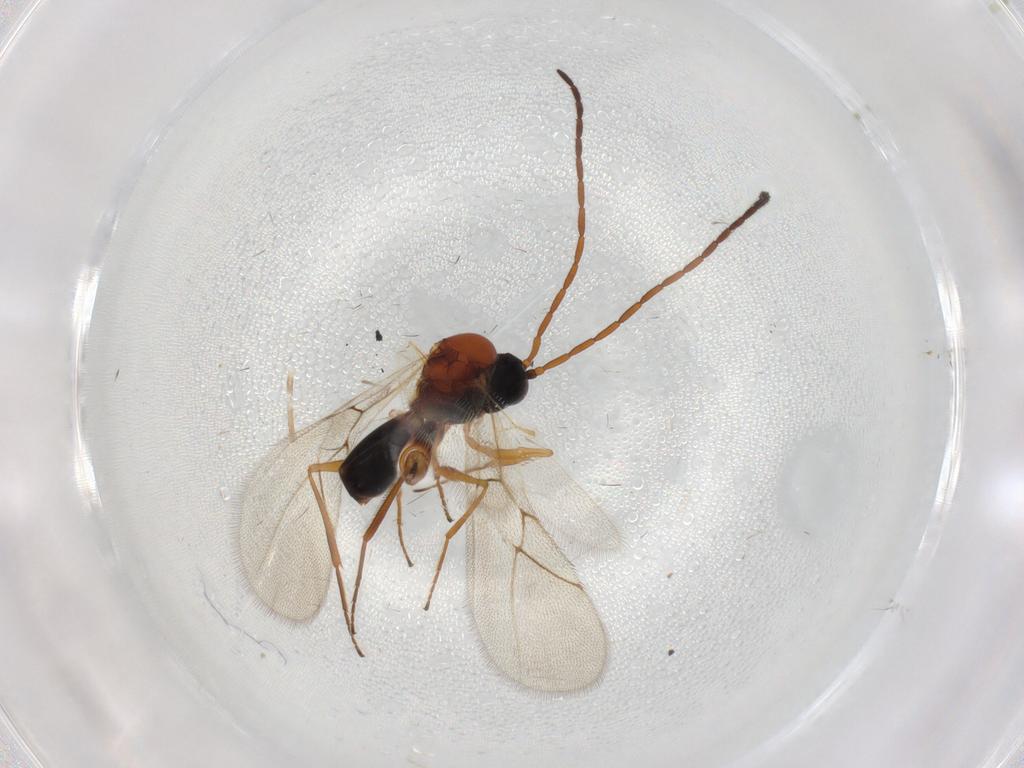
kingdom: Animalia
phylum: Arthropoda
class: Insecta
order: Hymenoptera
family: Figitidae
